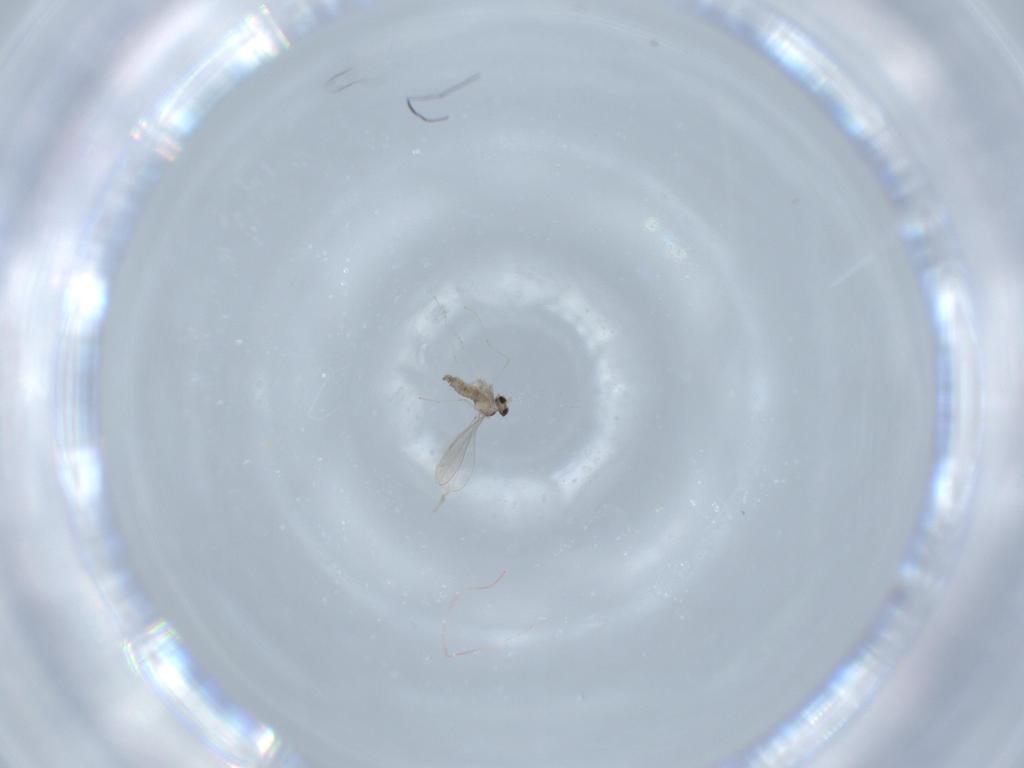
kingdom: Animalia
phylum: Arthropoda
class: Insecta
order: Diptera
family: Cecidomyiidae
